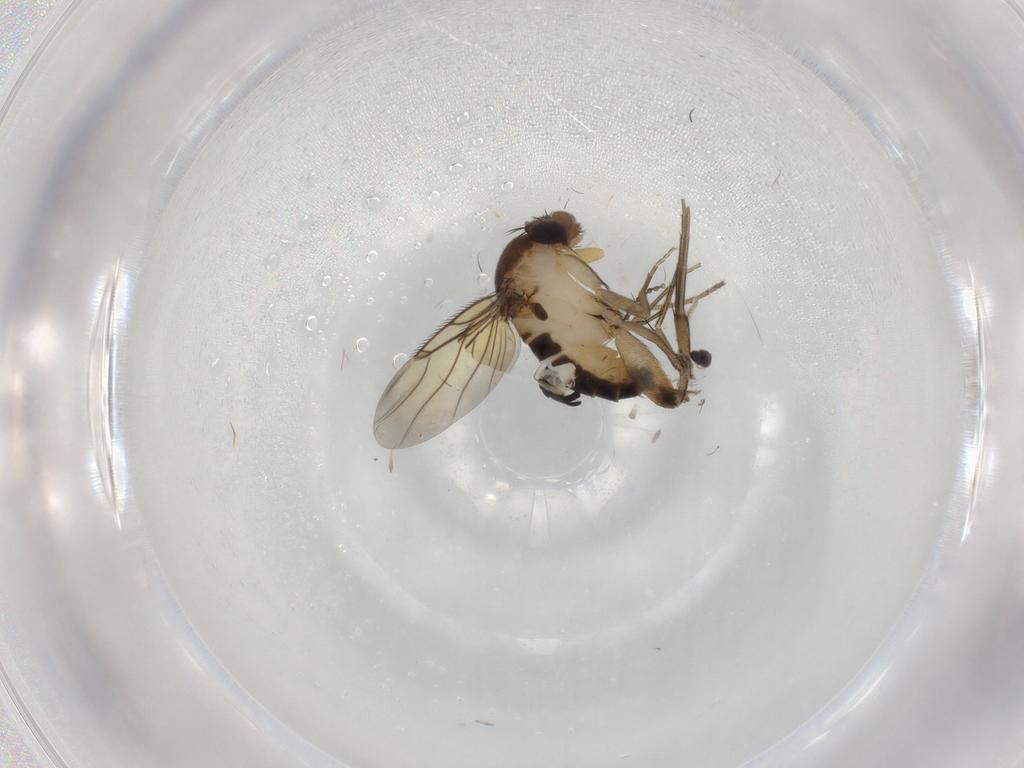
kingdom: Animalia
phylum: Arthropoda
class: Insecta
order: Diptera
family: Phoridae
